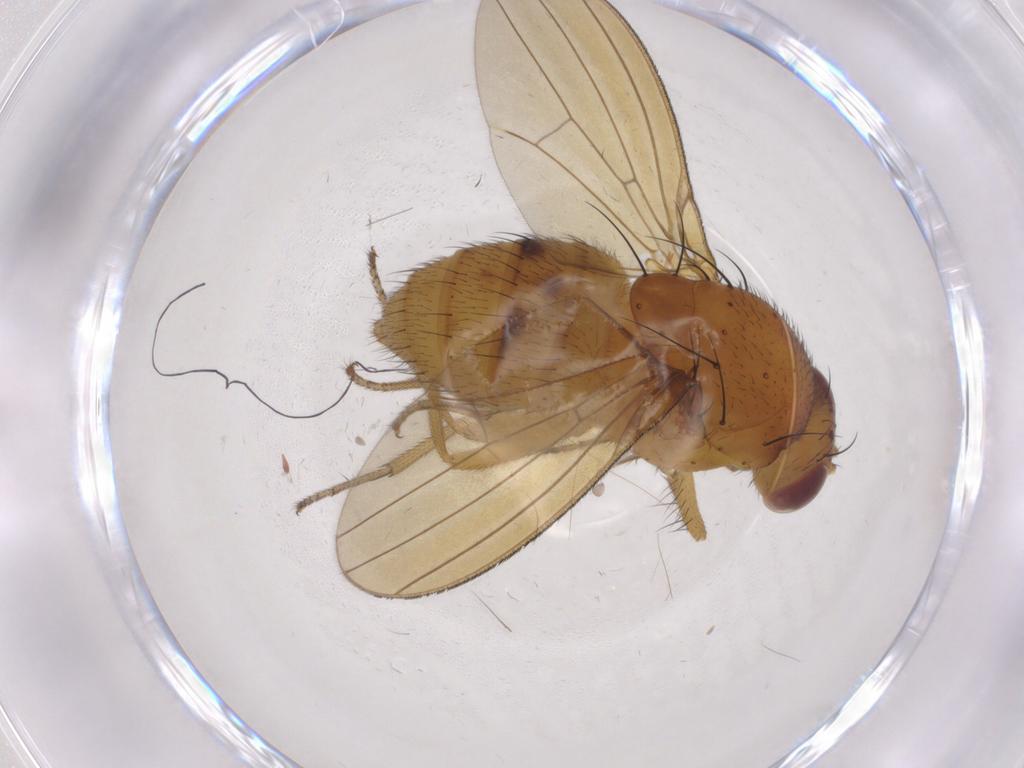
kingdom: Animalia
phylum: Arthropoda
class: Insecta
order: Diptera
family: Chironomidae
